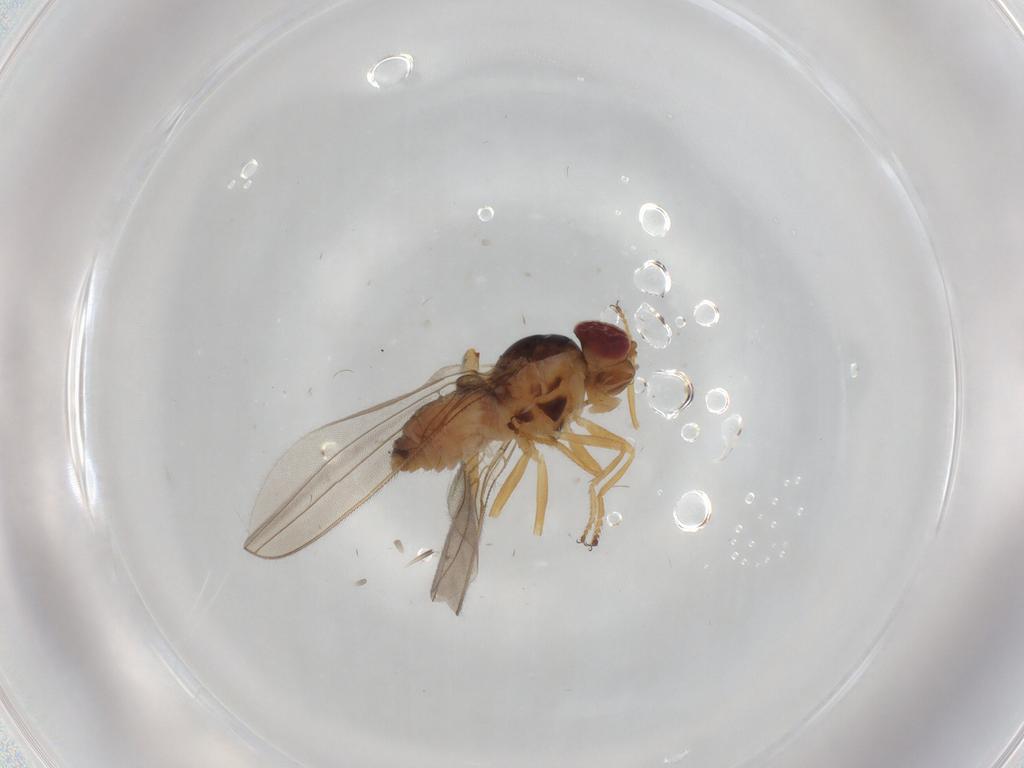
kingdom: Animalia
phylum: Arthropoda
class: Insecta
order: Diptera
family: Asteiidae
